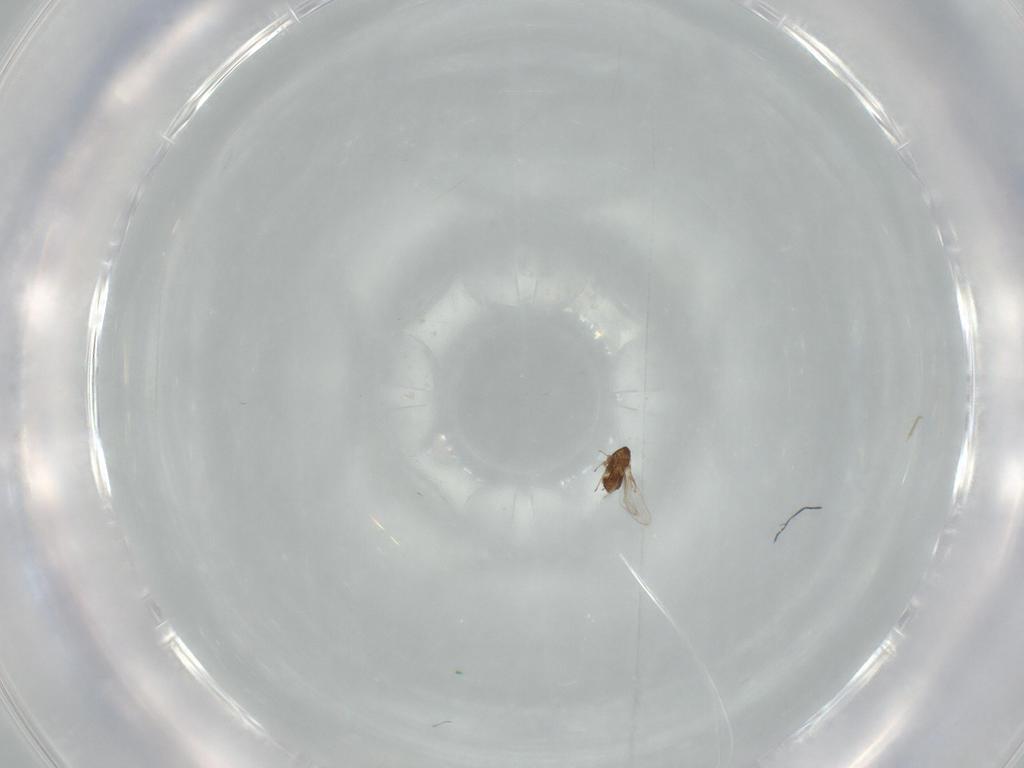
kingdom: Animalia
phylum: Arthropoda
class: Insecta
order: Hymenoptera
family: Trichogrammatidae
